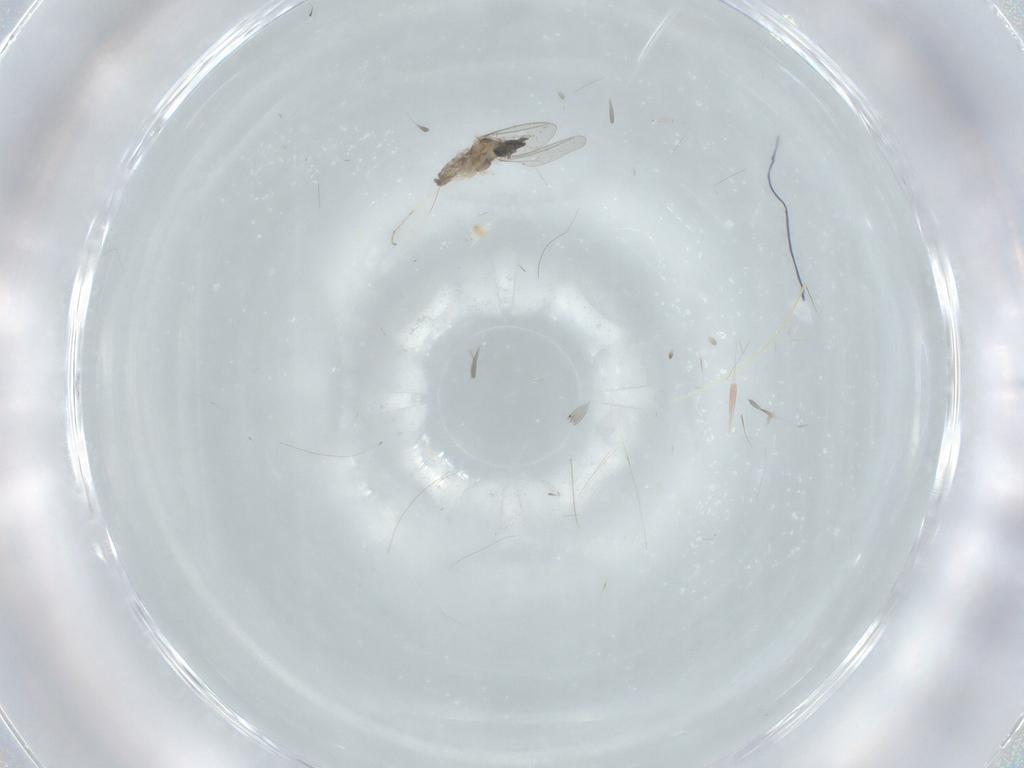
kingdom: Animalia
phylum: Arthropoda
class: Insecta
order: Diptera
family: Cecidomyiidae
